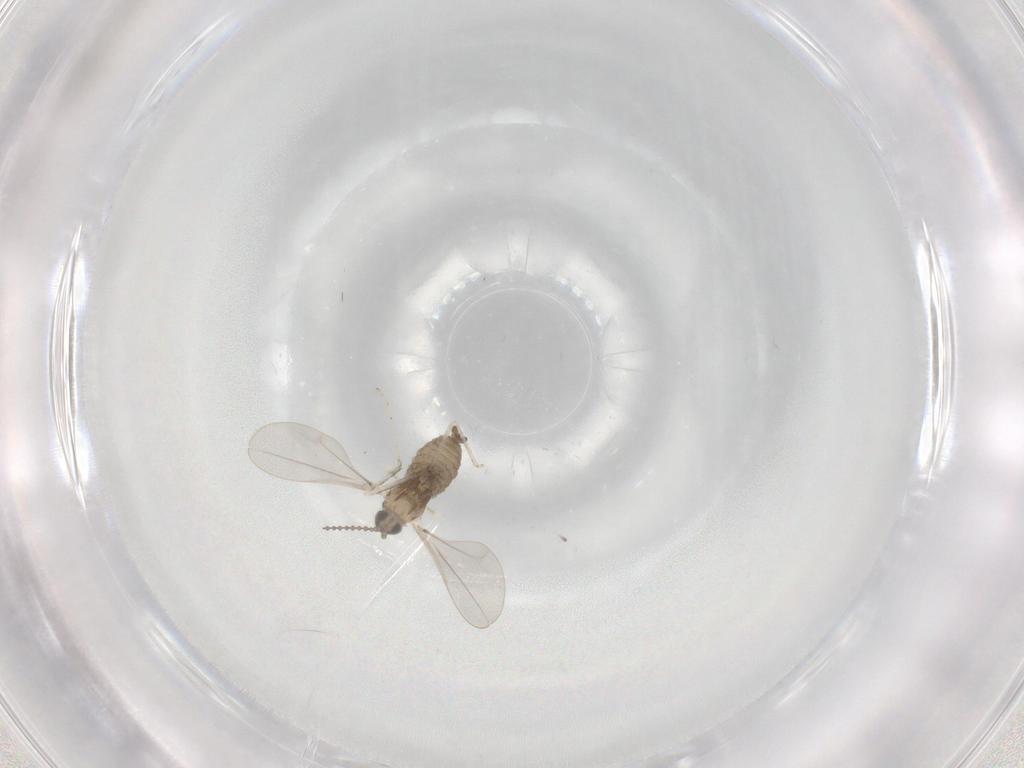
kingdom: Animalia
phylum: Arthropoda
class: Insecta
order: Diptera
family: Cecidomyiidae
